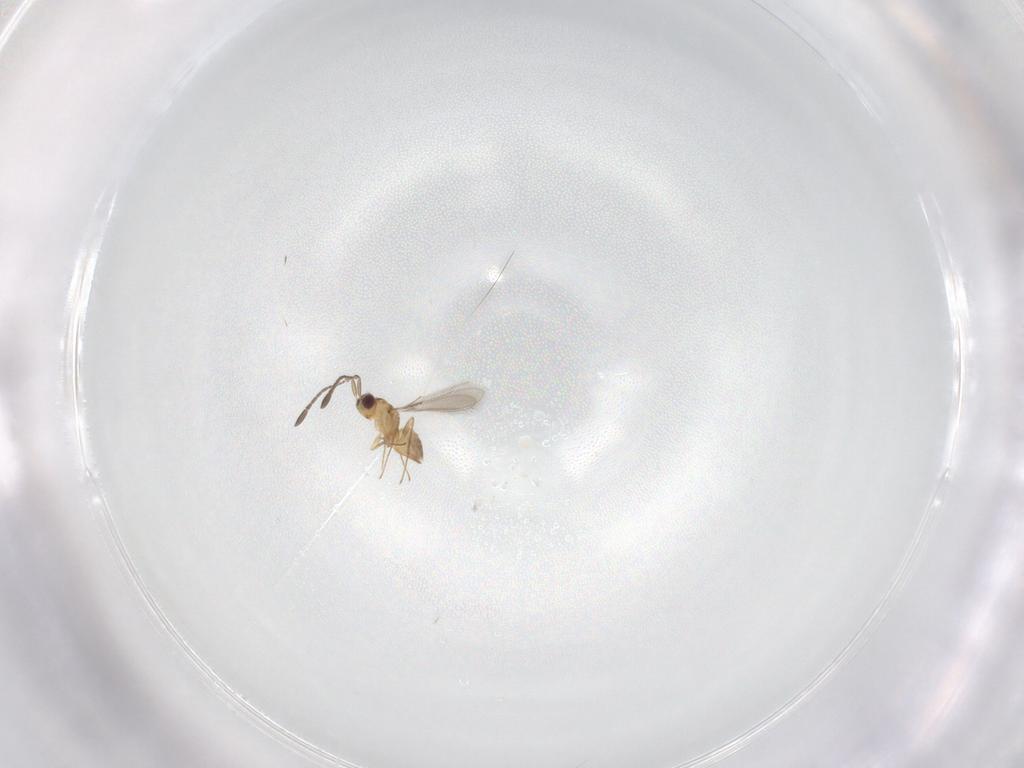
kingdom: Animalia
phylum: Arthropoda
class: Insecta
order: Hymenoptera
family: Mymaridae
